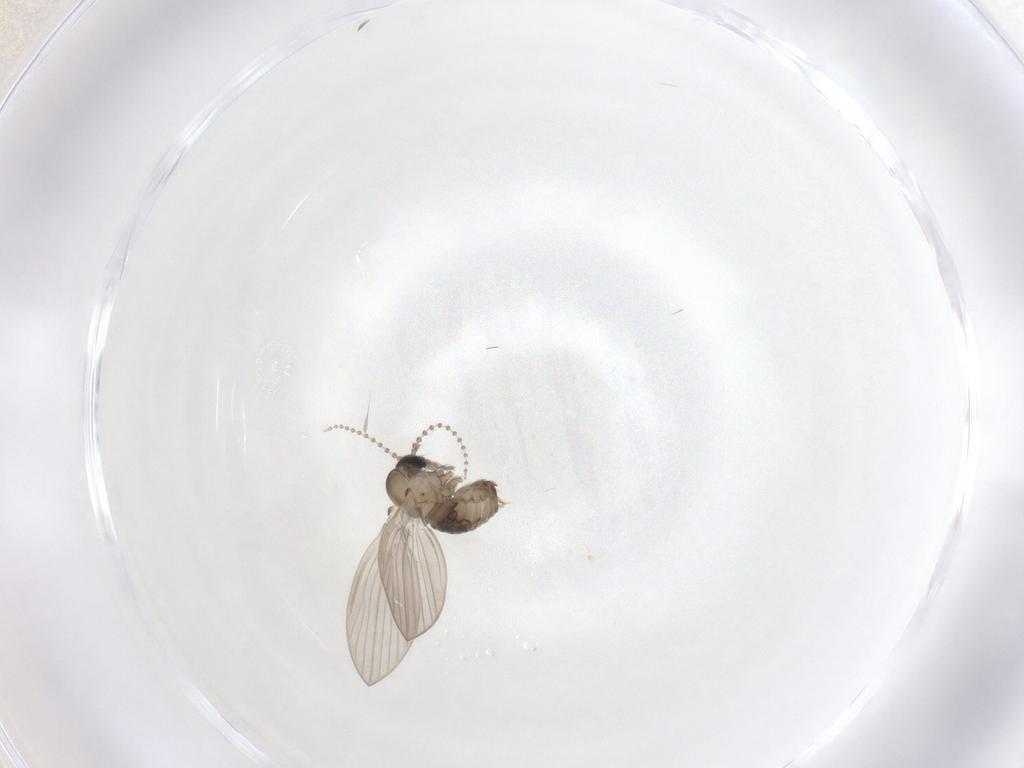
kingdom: Animalia
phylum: Arthropoda
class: Insecta
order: Diptera
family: Psychodidae
